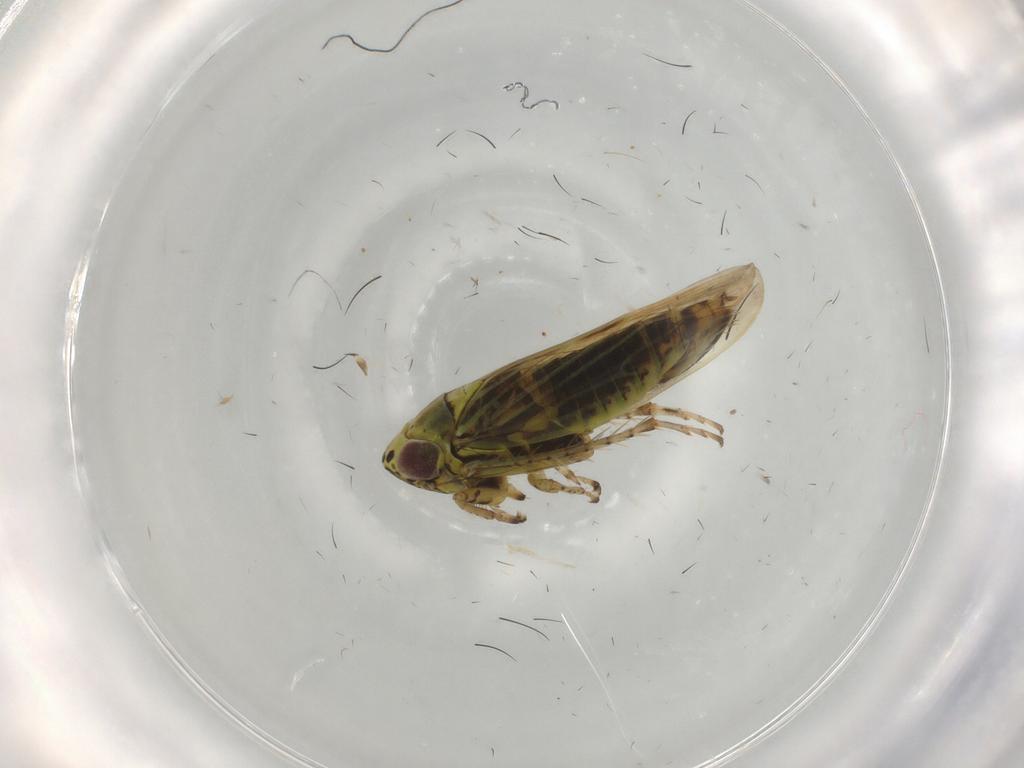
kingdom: Animalia
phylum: Arthropoda
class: Insecta
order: Hemiptera
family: Cicadellidae
